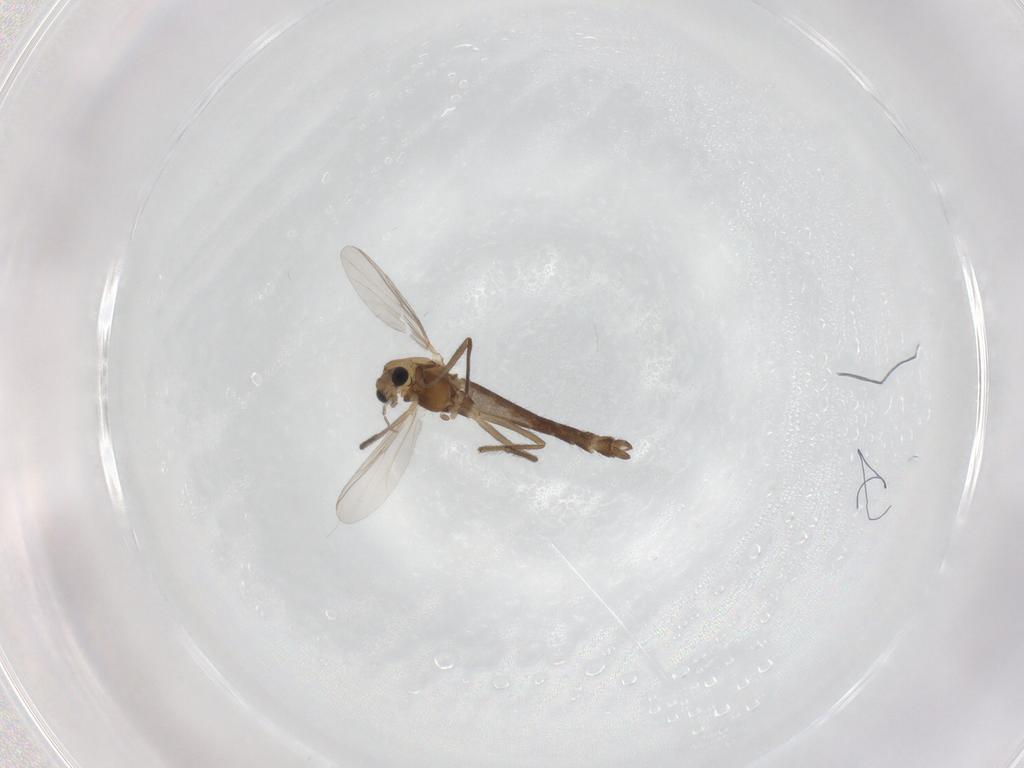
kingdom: Animalia
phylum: Arthropoda
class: Insecta
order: Diptera
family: Chironomidae
